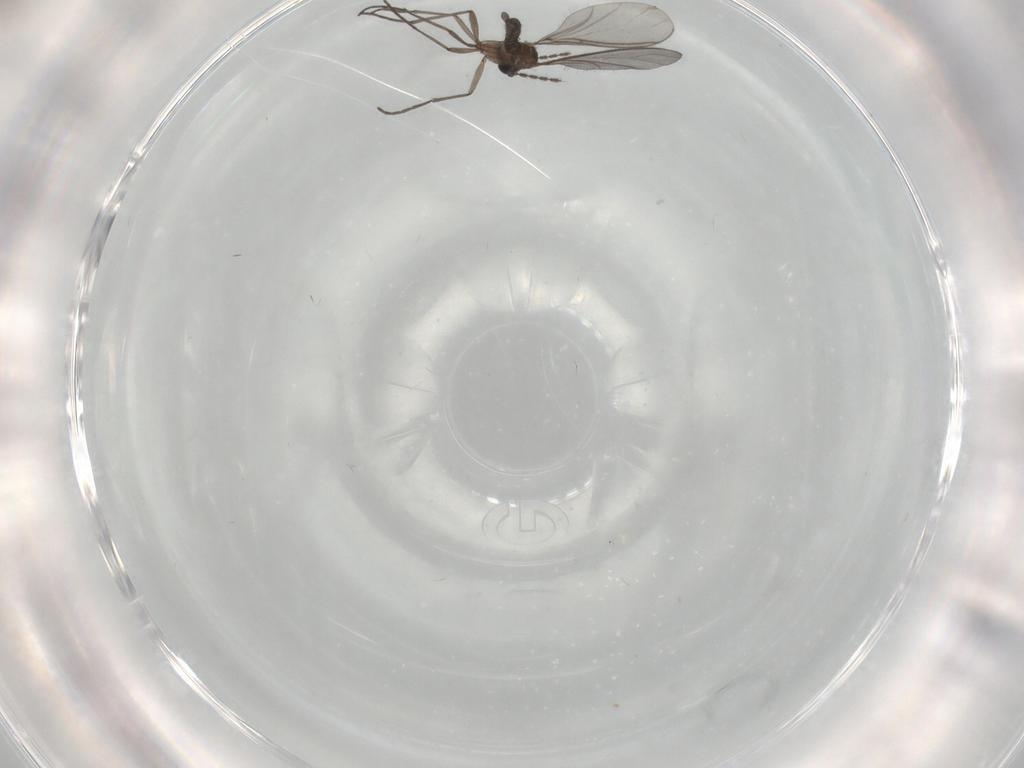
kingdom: Animalia
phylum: Arthropoda
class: Insecta
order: Diptera
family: Sciaridae
